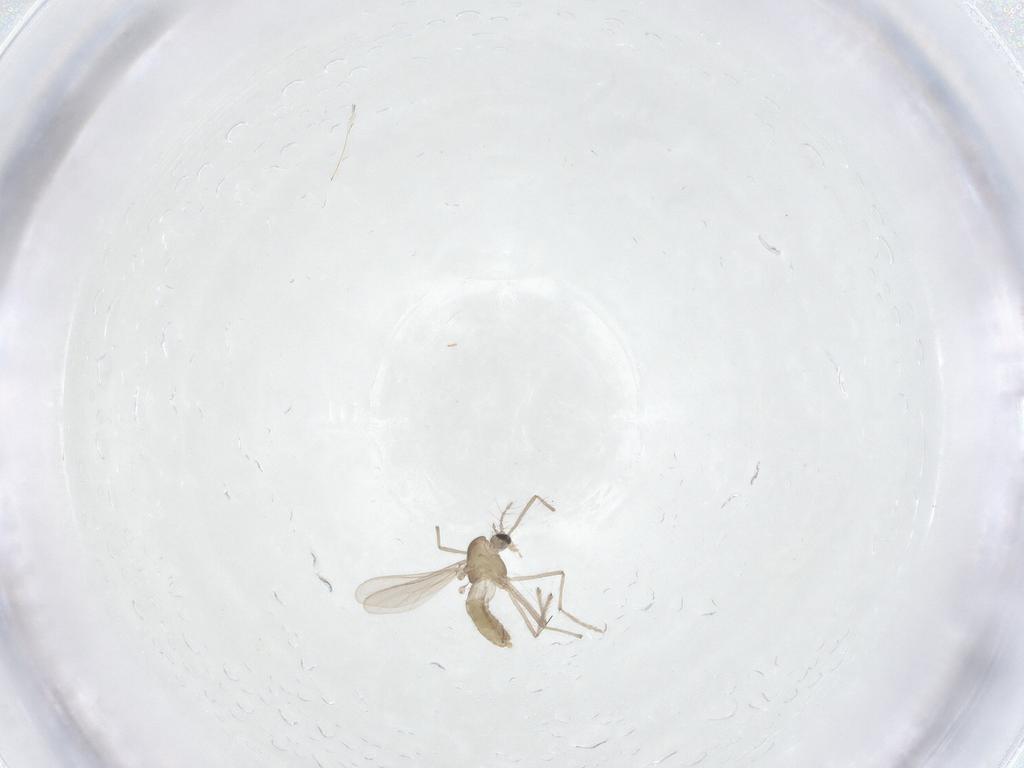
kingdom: Animalia
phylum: Arthropoda
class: Insecta
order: Diptera
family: Chironomidae
